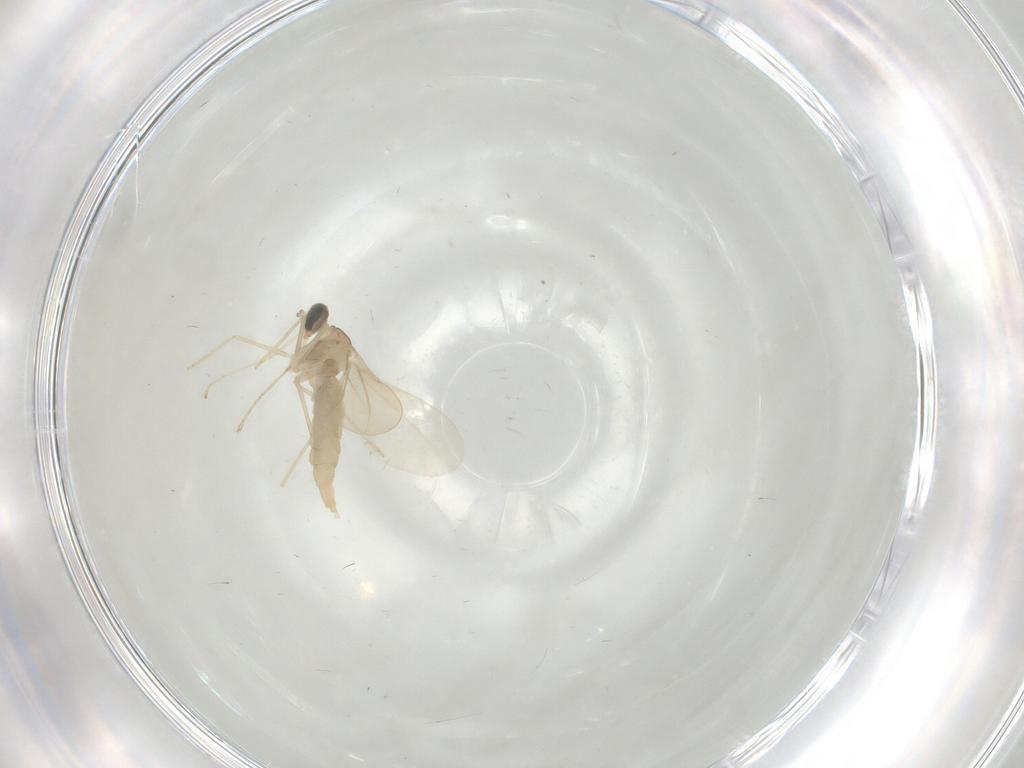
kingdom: Animalia
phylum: Arthropoda
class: Insecta
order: Diptera
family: Cecidomyiidae
